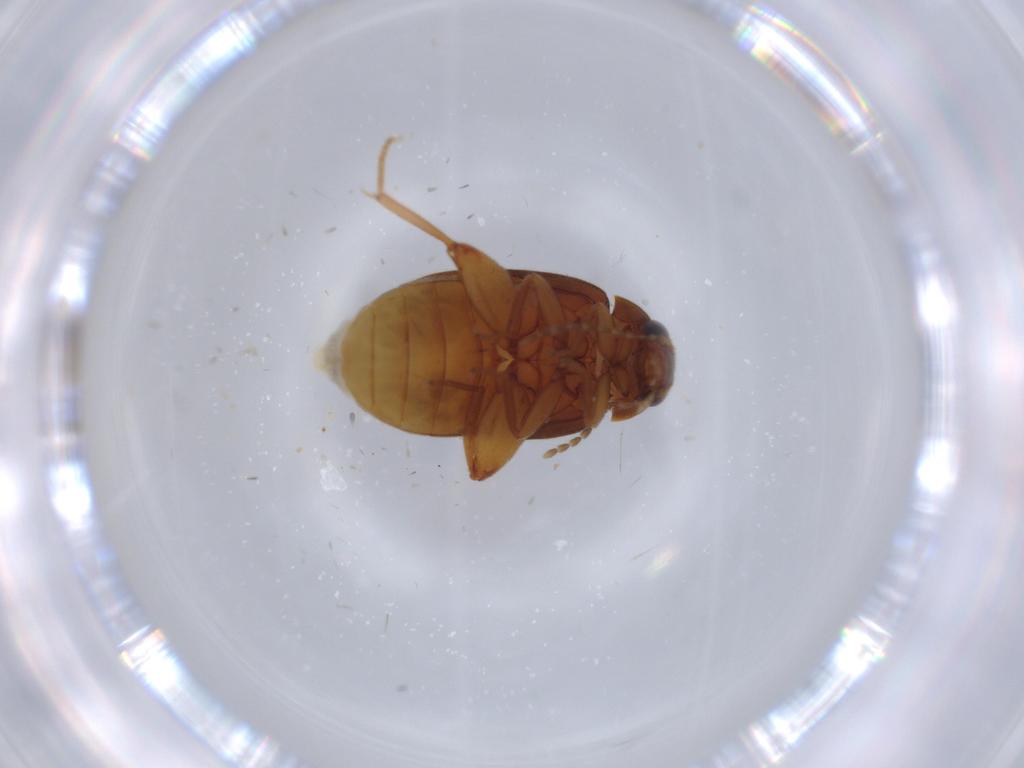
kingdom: Animalia
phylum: Arthropoda
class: Insecta
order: Coleoptera
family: Scirtidae
